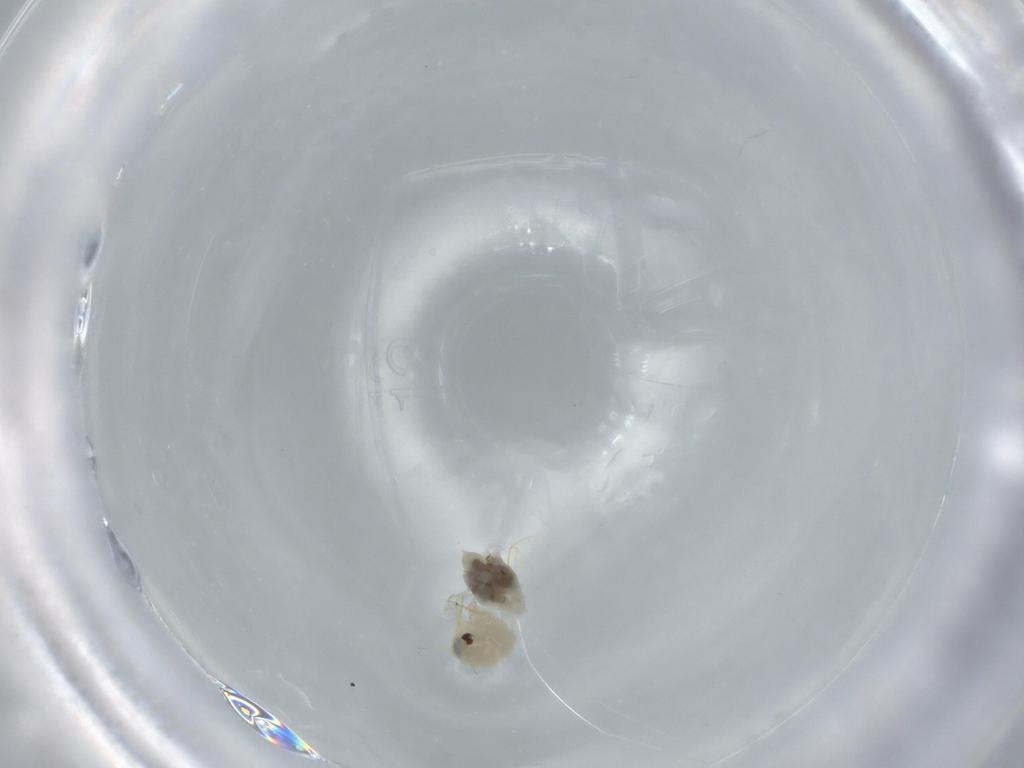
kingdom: Animalia
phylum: Arthropoda
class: Insecta
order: Hemiptera
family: Aleyrodidae
